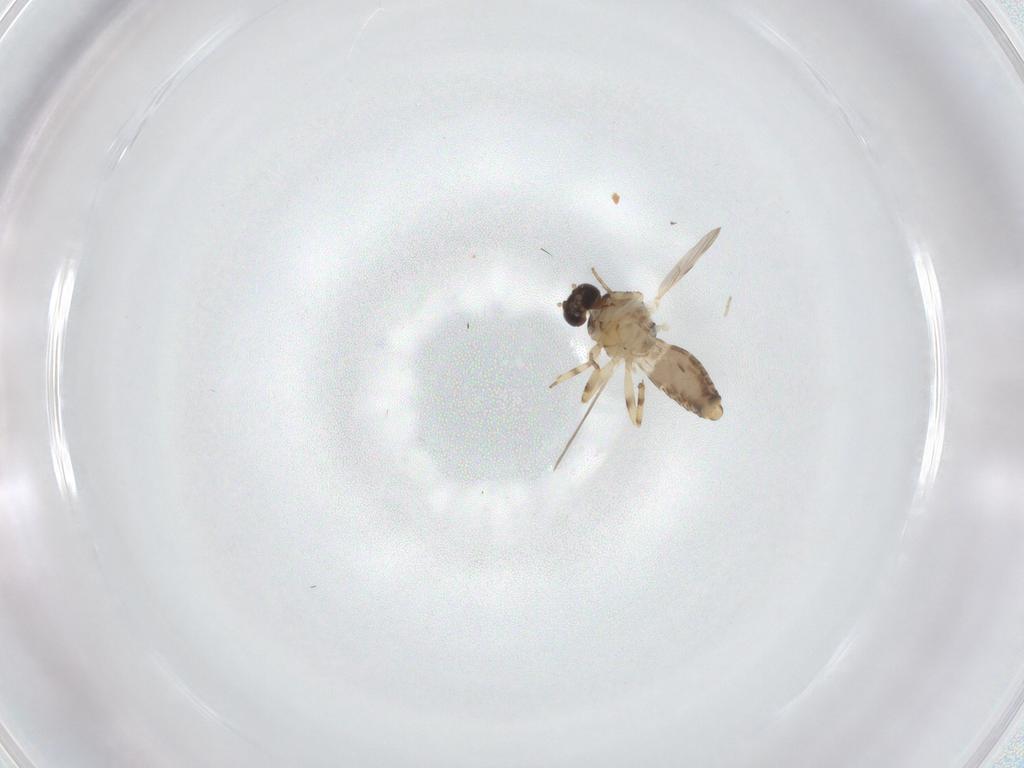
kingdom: Animalia
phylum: Arthropoda
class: Insecta
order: Diptera
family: Ceratopogonidae
